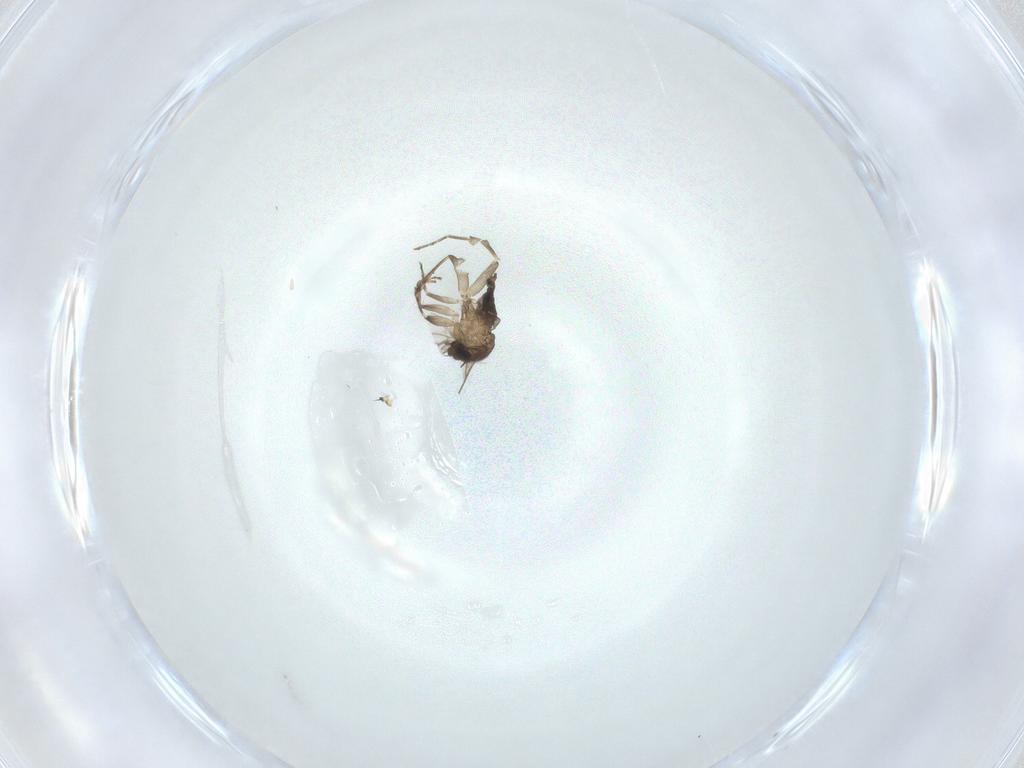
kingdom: Animalia
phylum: Arthropoda
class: Insecta
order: Diptera
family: Phoridae
